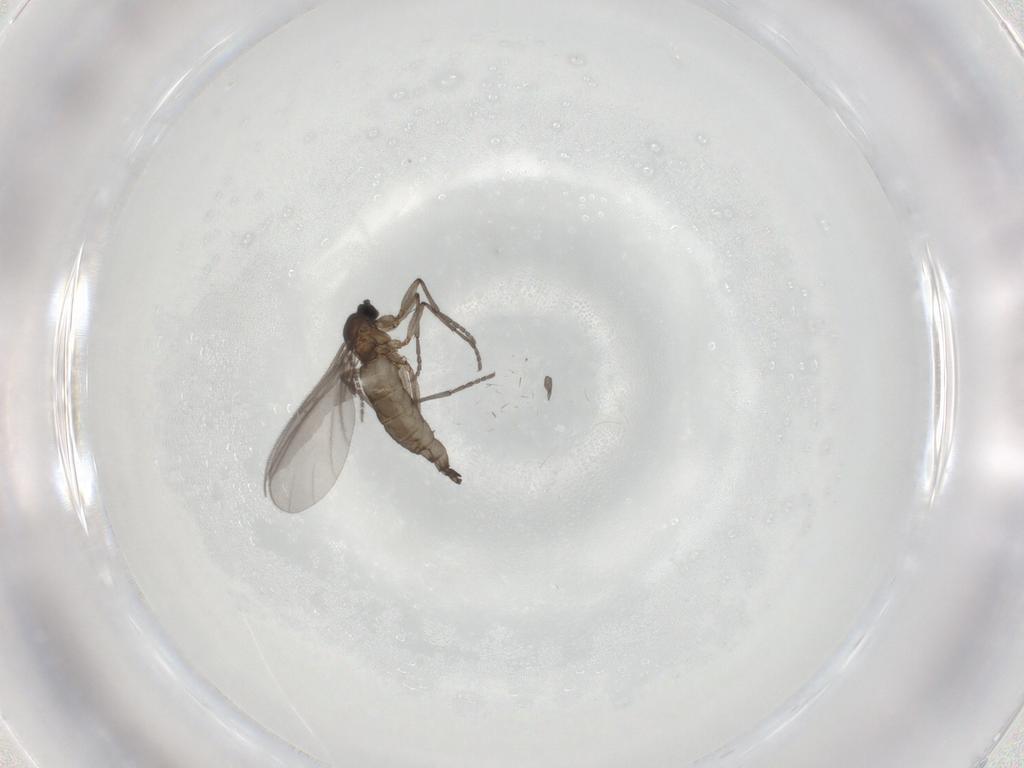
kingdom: Animalia
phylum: Arthropoda
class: Insecta
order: Diptera
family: Sciaridae
